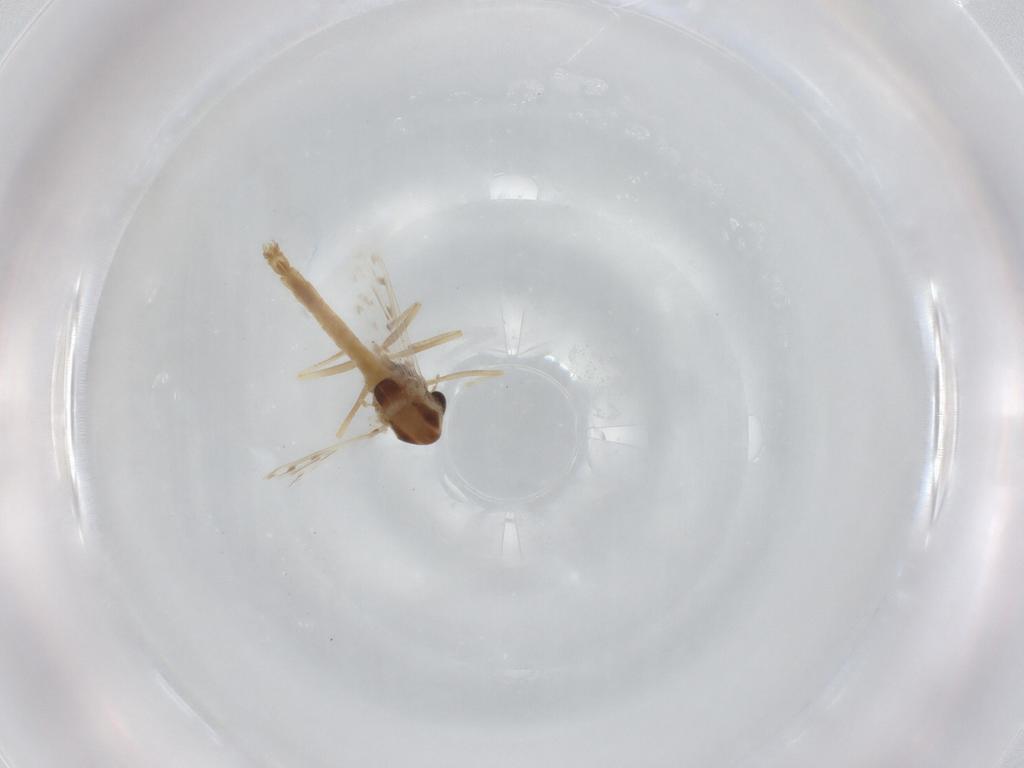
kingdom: Animalia
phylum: Arthropoda
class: Insecta
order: Diptera
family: Chironomidae
